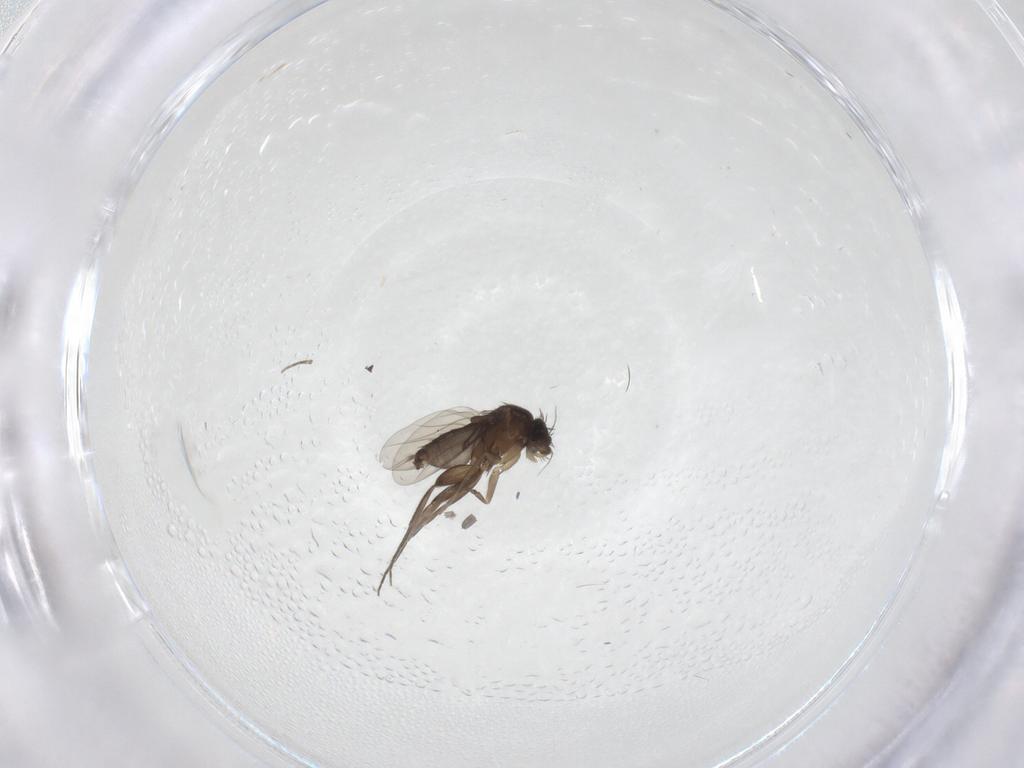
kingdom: Animalia
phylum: Arthropoda
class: Insecta
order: Diptera
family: Phoridae
